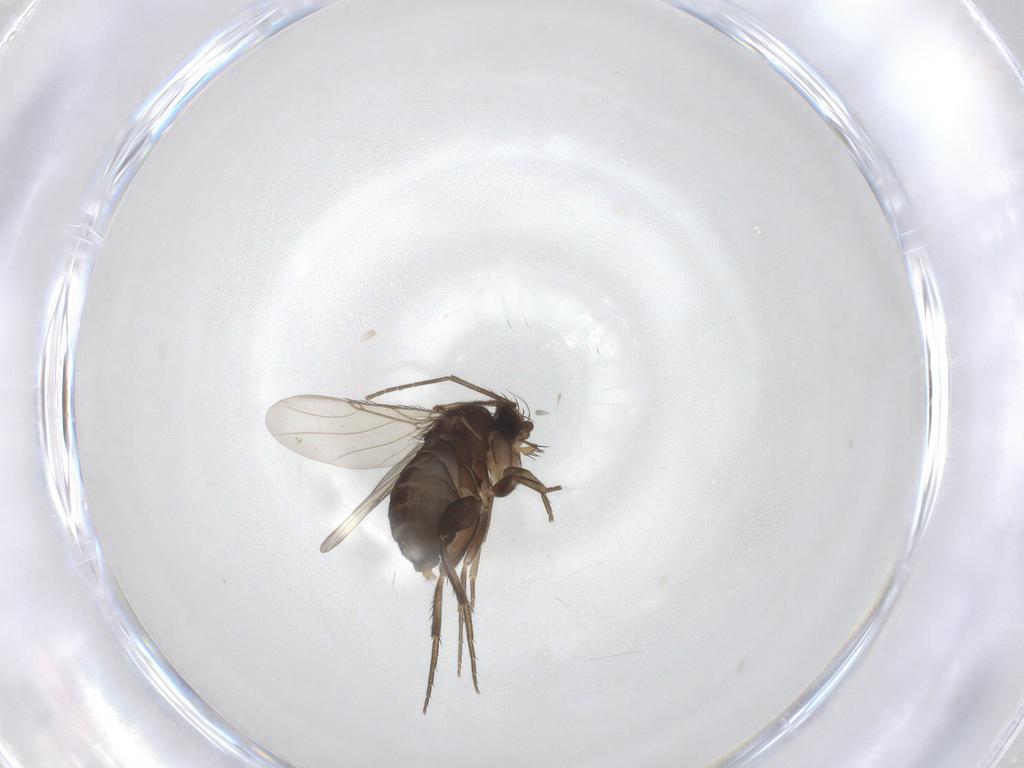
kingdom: Animalia
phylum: Arthropoda
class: Insecta
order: Diptera
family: Phoridae
